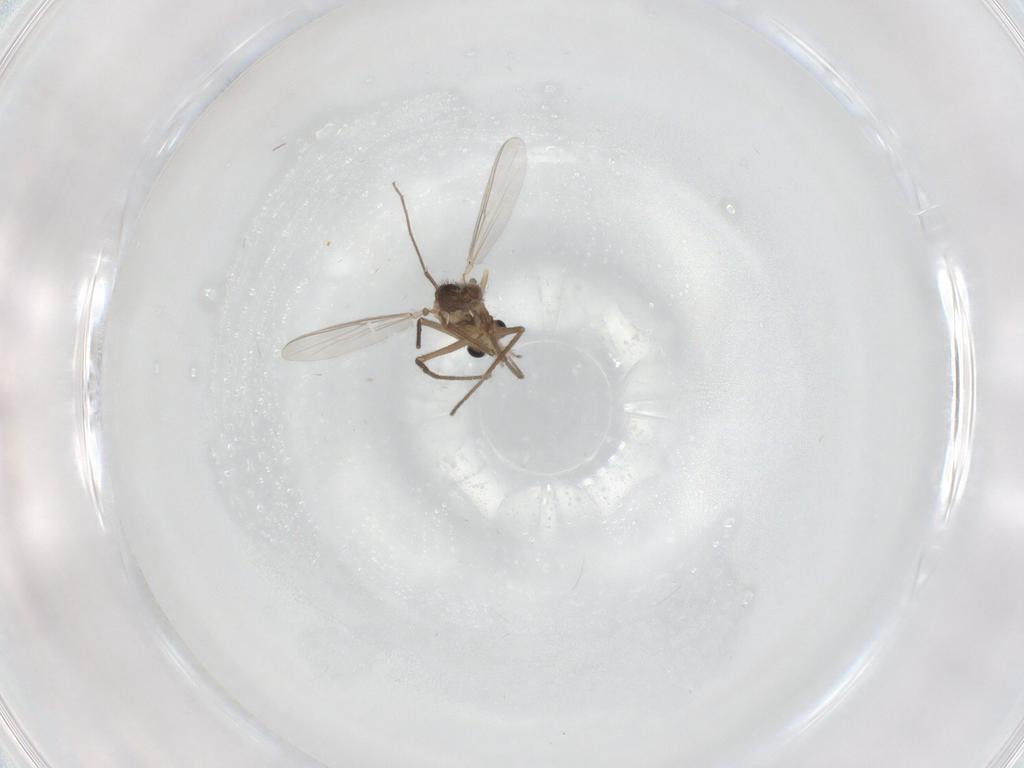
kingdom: Animalia
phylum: Arthropoda
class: Insecta
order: Diptera
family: Chironomidae
